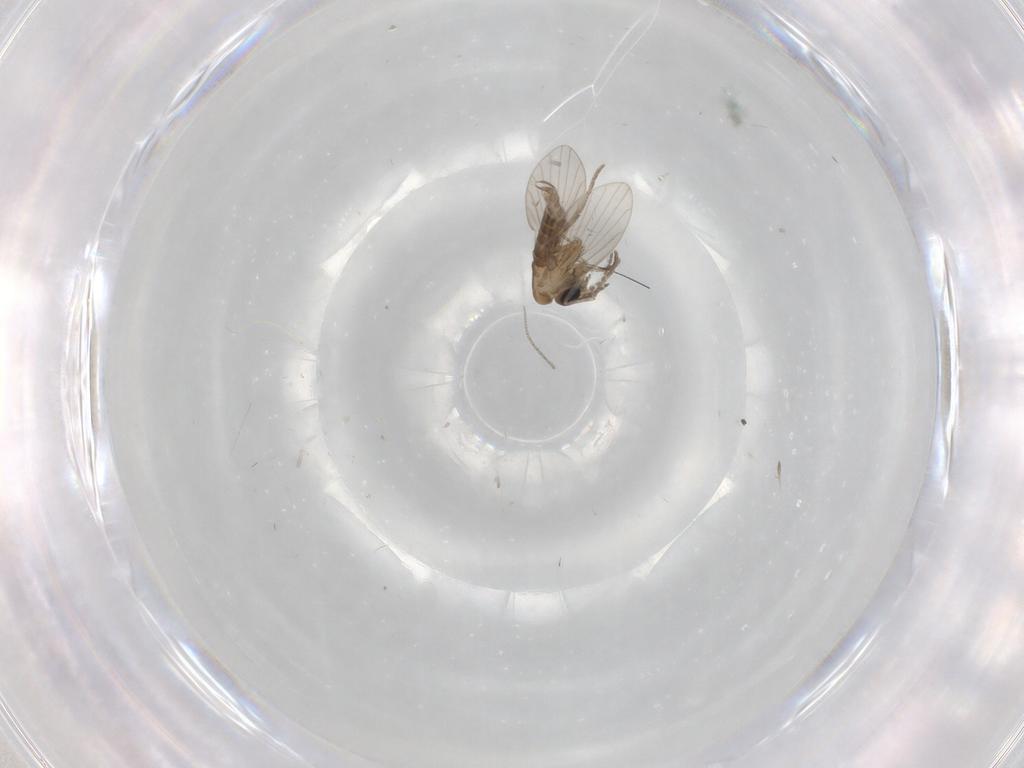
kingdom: Animalia
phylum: Arthropoda
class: Insecta
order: Diptera
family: Cecidomyiidae
